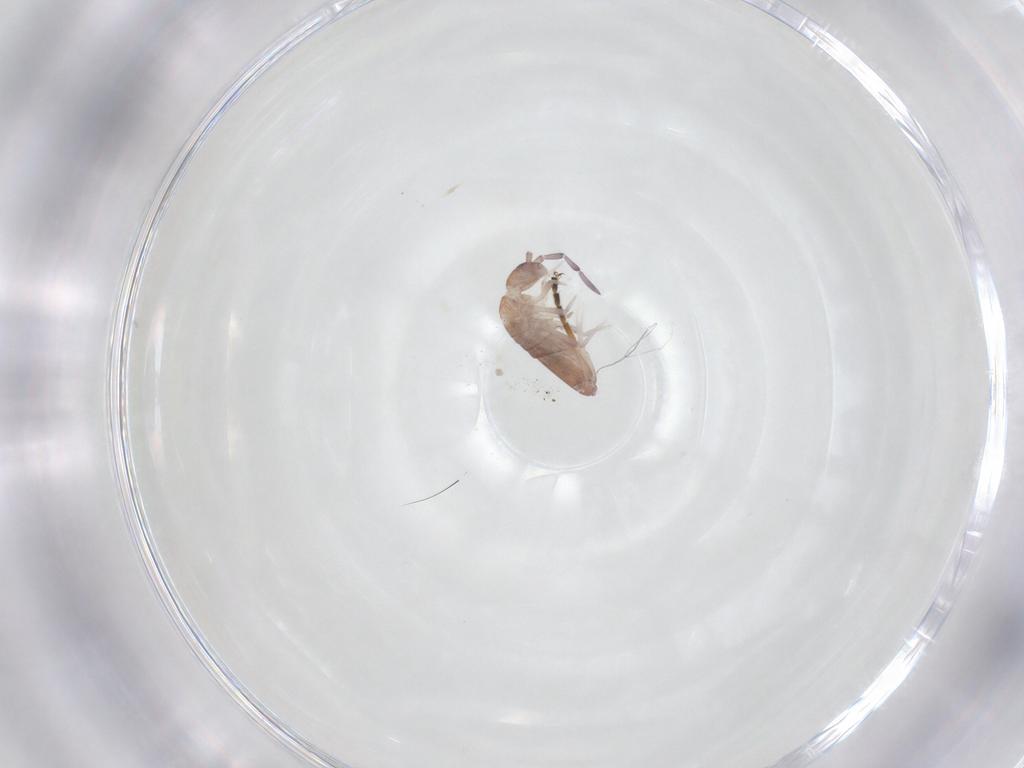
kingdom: Animalia
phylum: Arthropoda
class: Collembola
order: Entomobryomorpha
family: Entomobryidae
